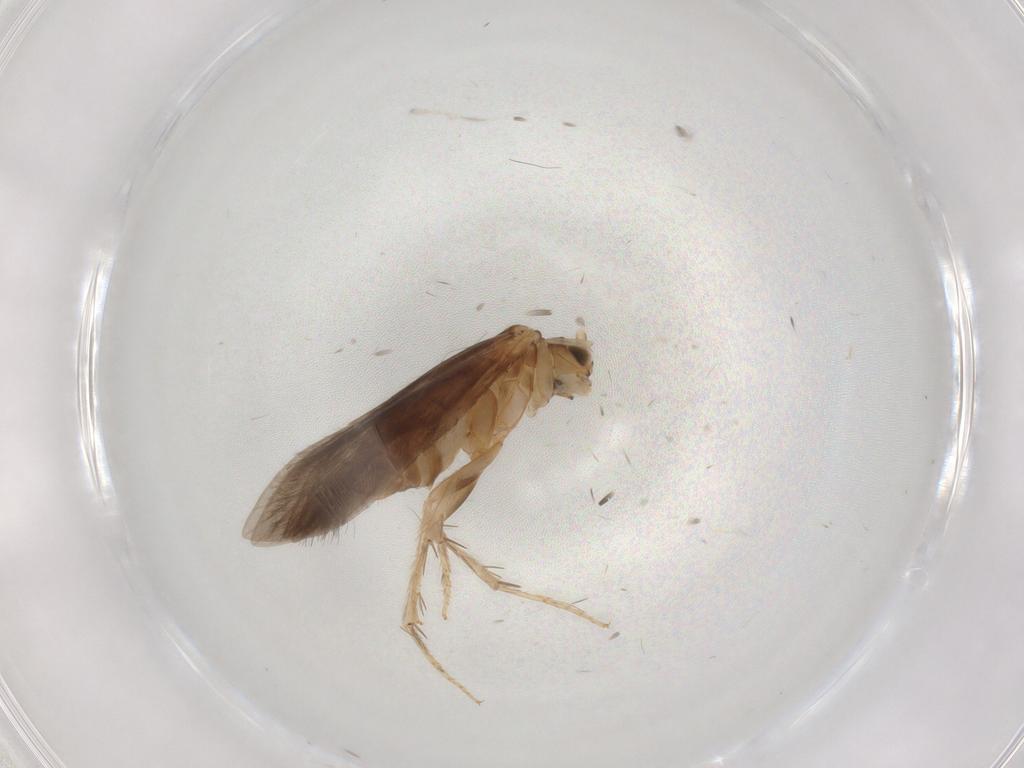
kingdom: Animalia
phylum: Arthropoda
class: Insecta
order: Trichoptera
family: Glossosomatidae
